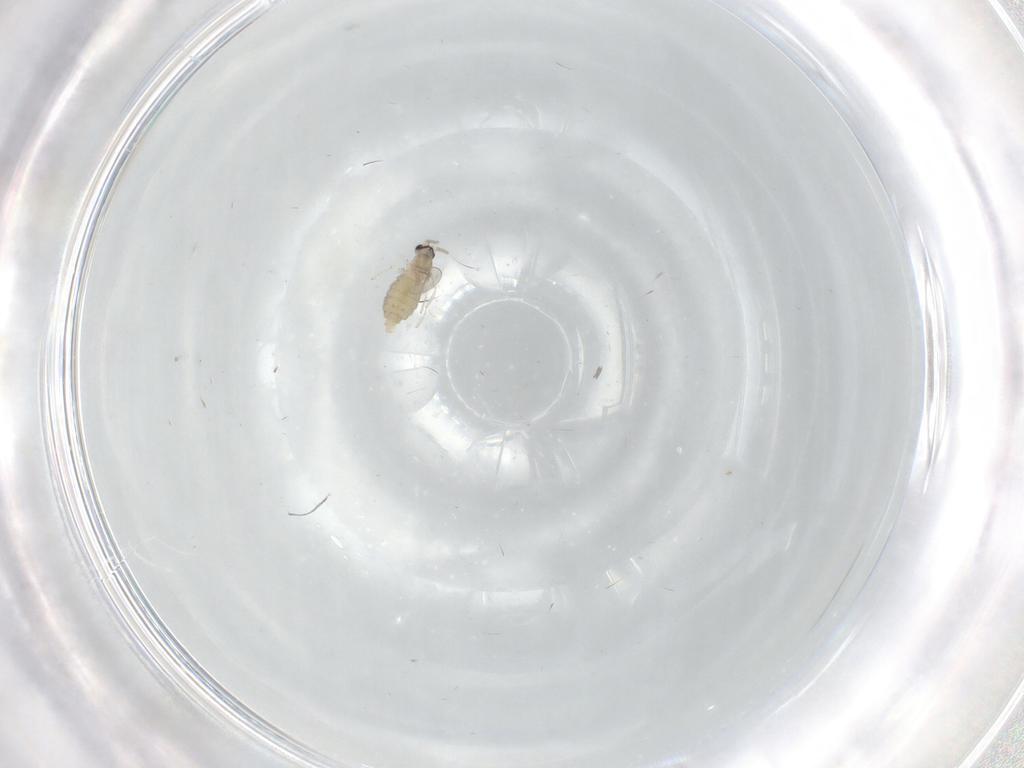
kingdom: Animalia
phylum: Arthropoda
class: Insecta
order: Diptera
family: Cecidomyiidae
